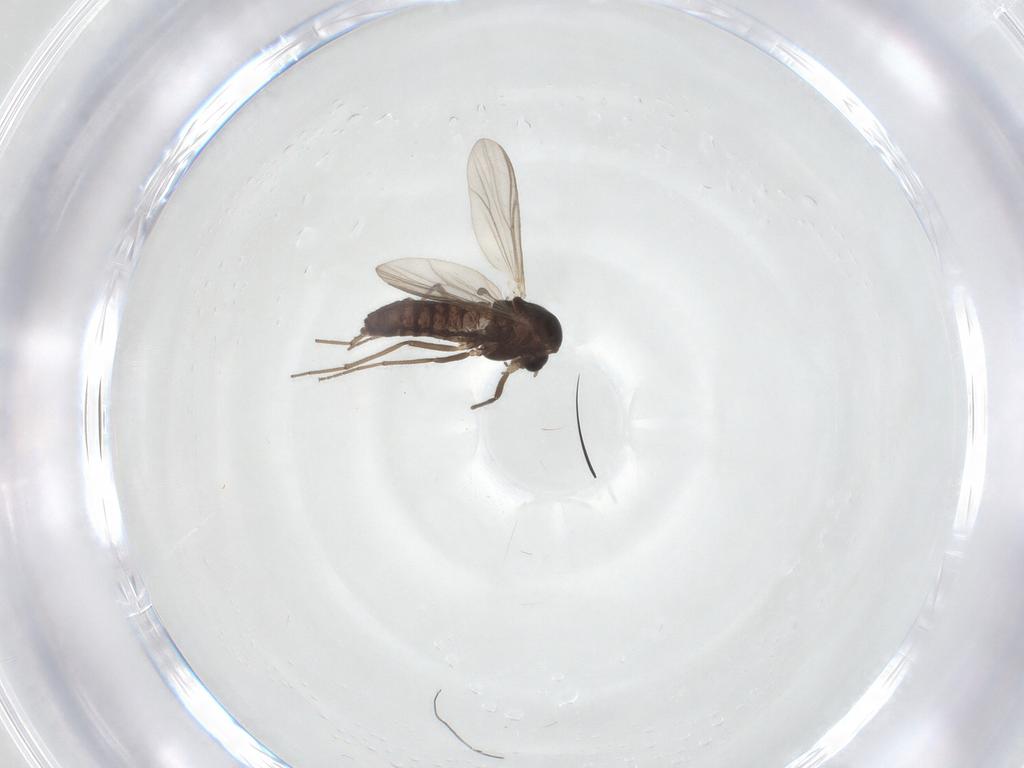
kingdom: Animalia
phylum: Arthropoda
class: Insecta
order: Diptera
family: Chironomidae
